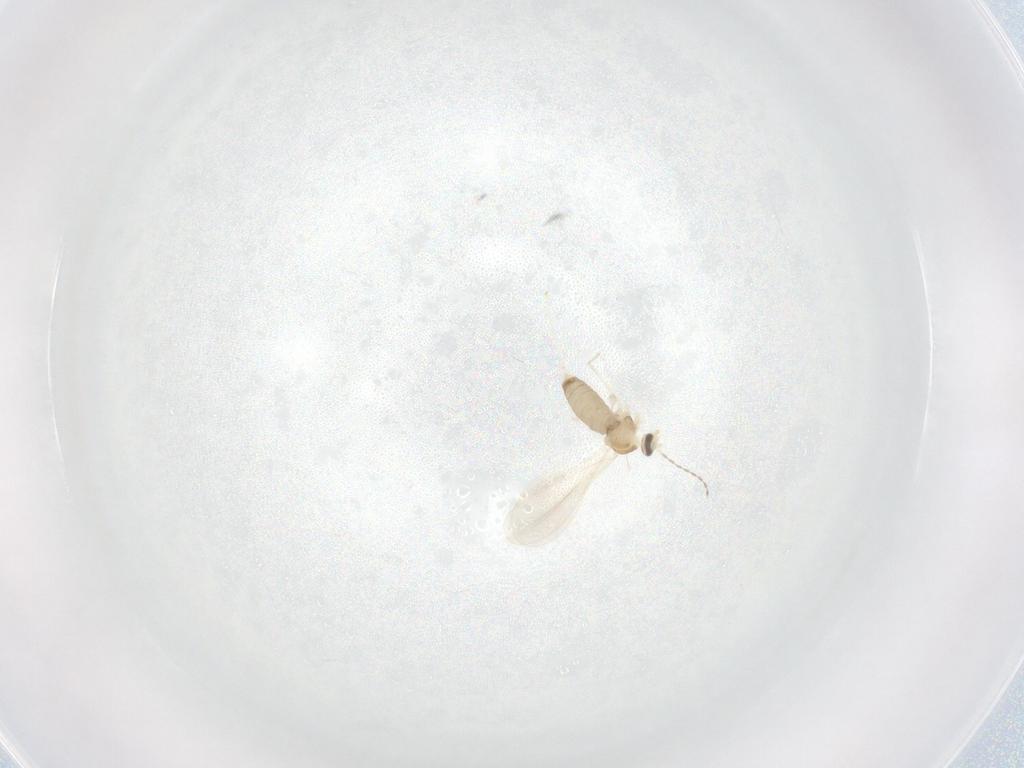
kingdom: Animalia
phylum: Arthropoda
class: Insecta
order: Diptera
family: Cecidomyiidae
